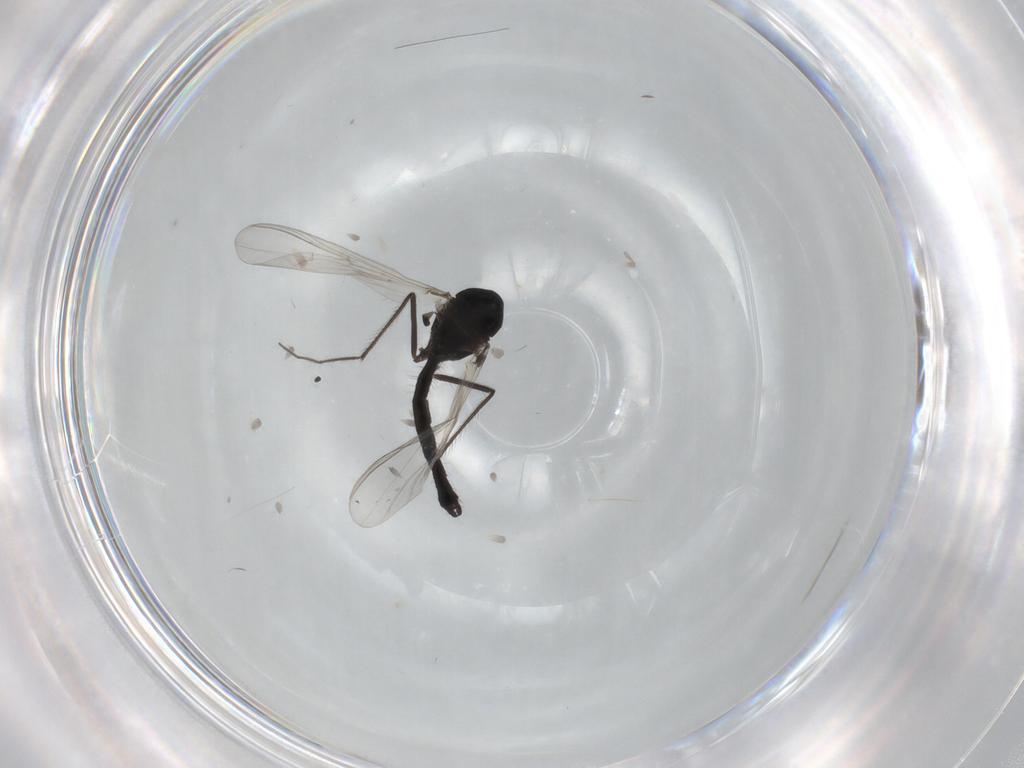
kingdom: Animalia
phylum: Arthropoda
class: Insecta
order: Diptera
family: Chironomidae
